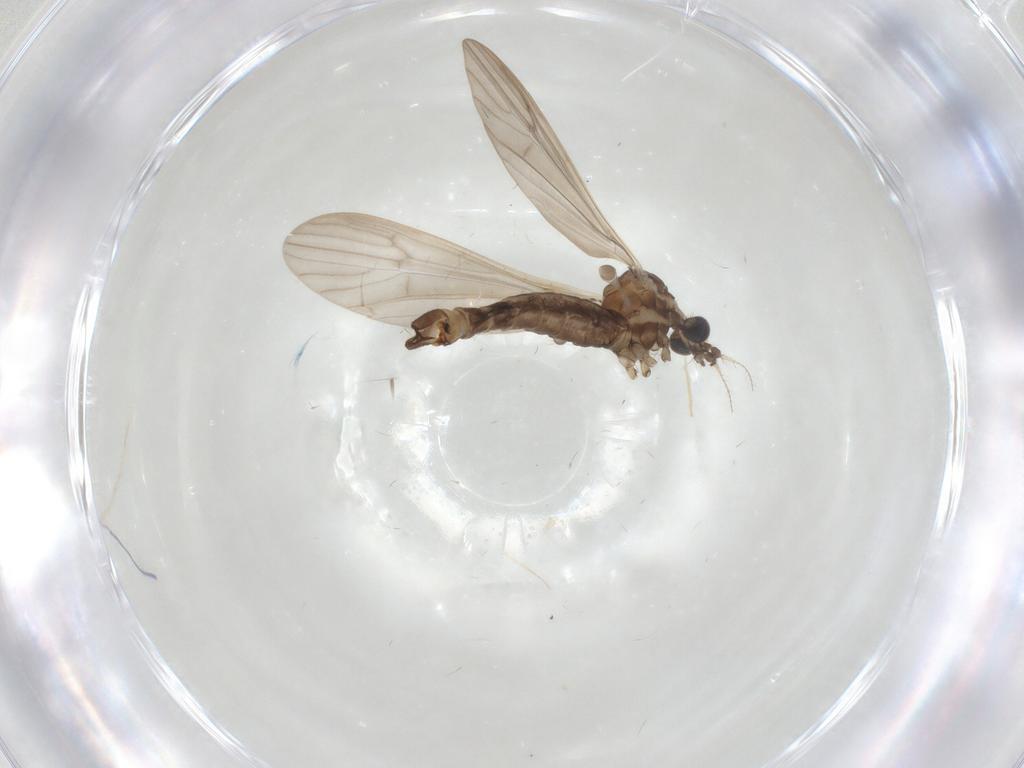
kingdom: Animalia
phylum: Arthropoda
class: Insecta
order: Diptera
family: Limoniidae
